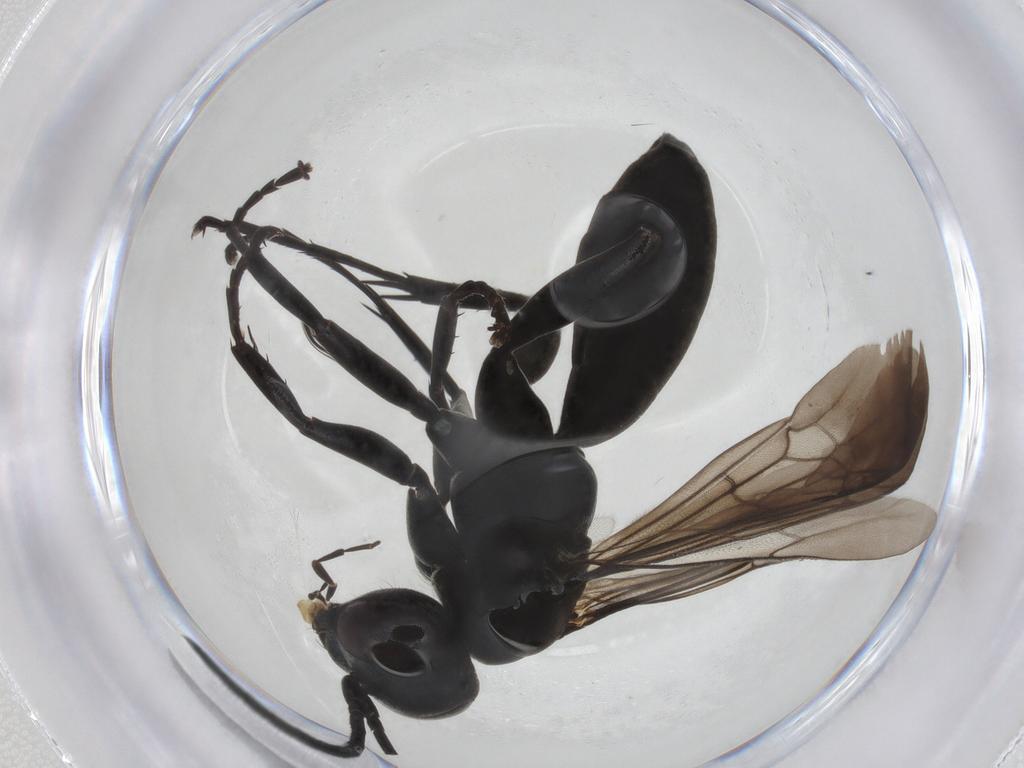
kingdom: Animalia
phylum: Arthropoda
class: Insecta
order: Hymenoptera
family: Pompilidae
